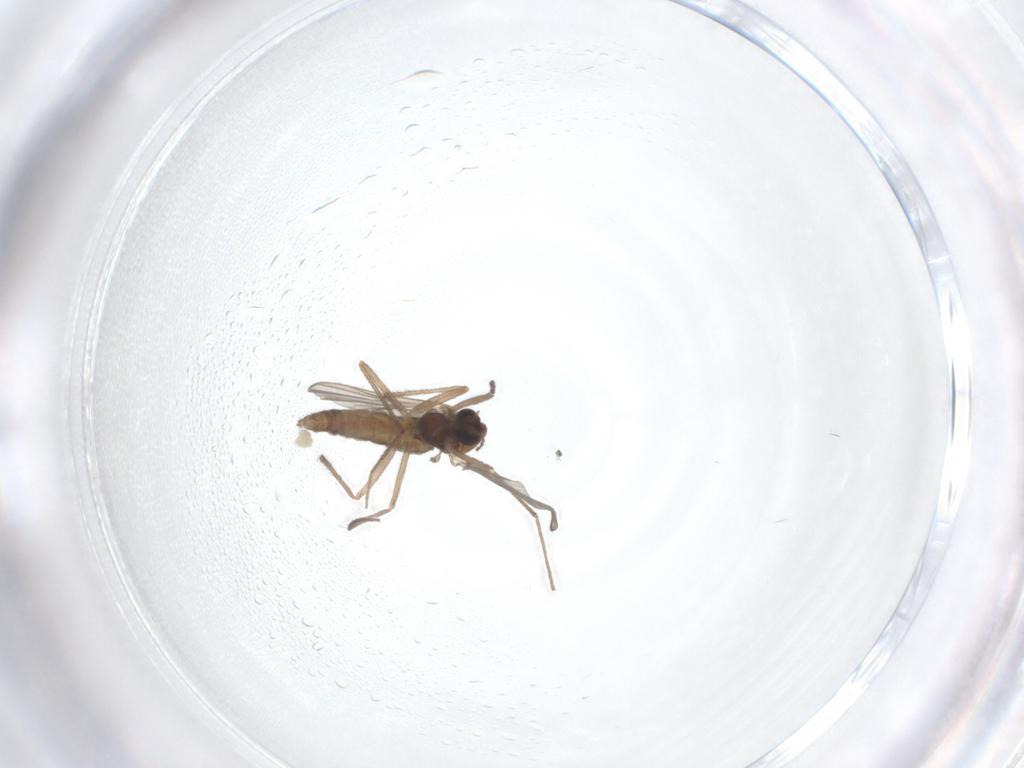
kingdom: Animalia
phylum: Arthropoda
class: Insecta
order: Diptera
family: Chironomidae
